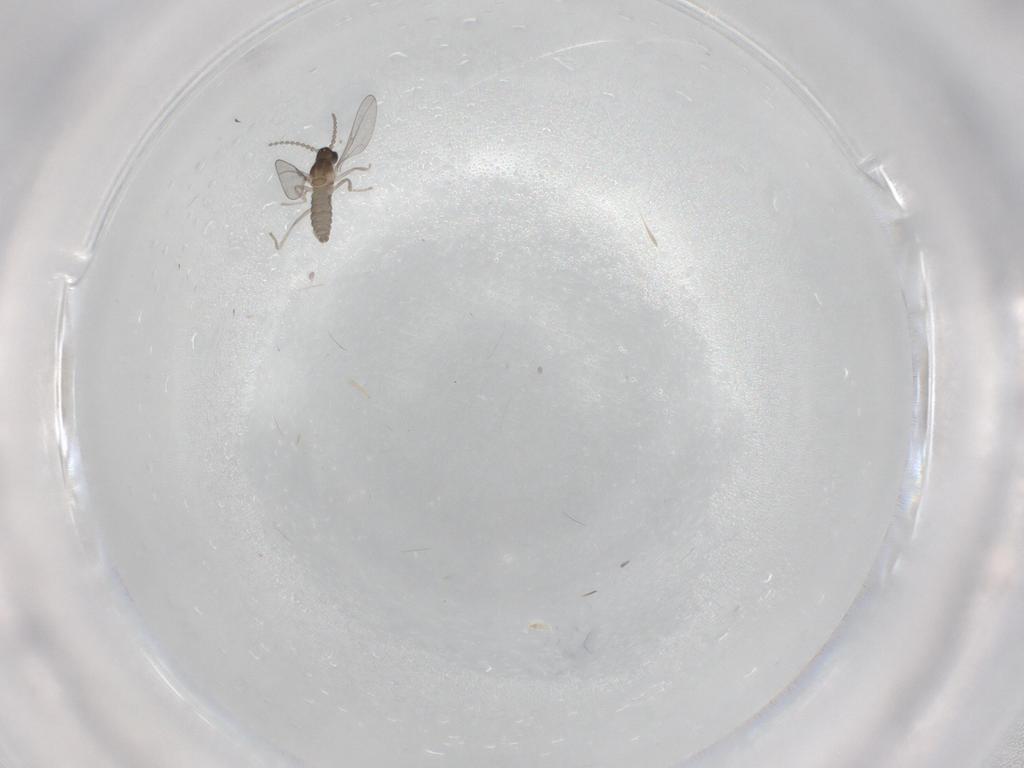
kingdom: Animalia
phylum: Arthropoda
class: Insecta
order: Diptera
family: Cecidomyiidae
